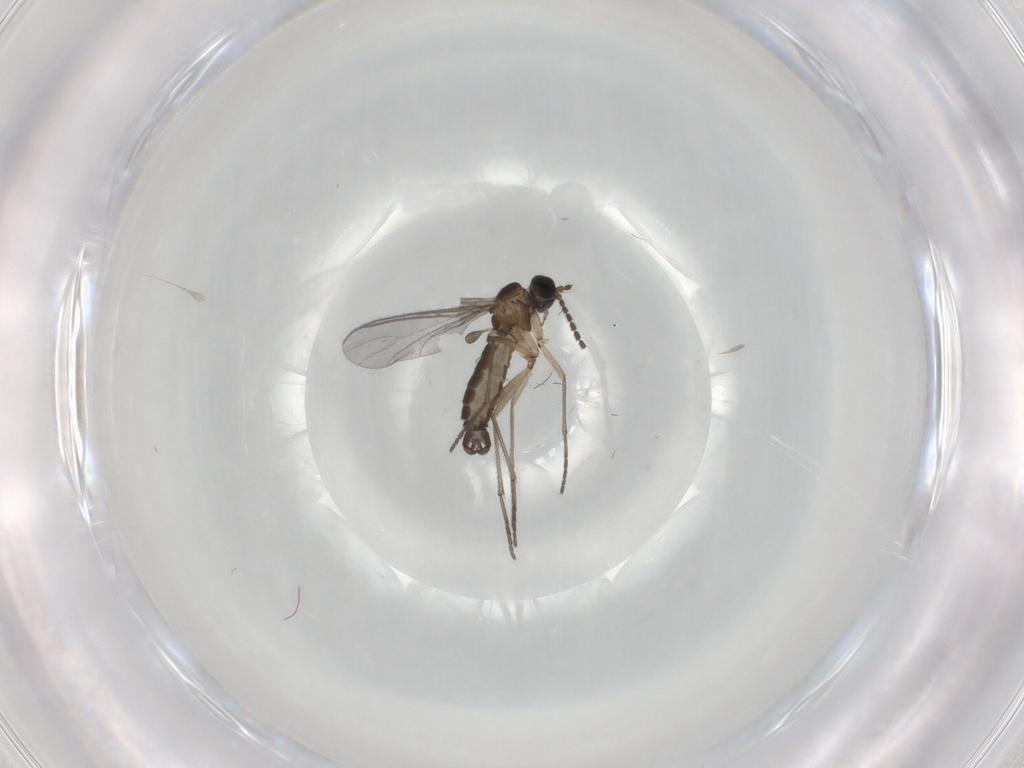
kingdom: Animalia
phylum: Arthropoda
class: Insecta
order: Diptera
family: Dolichopodidae
